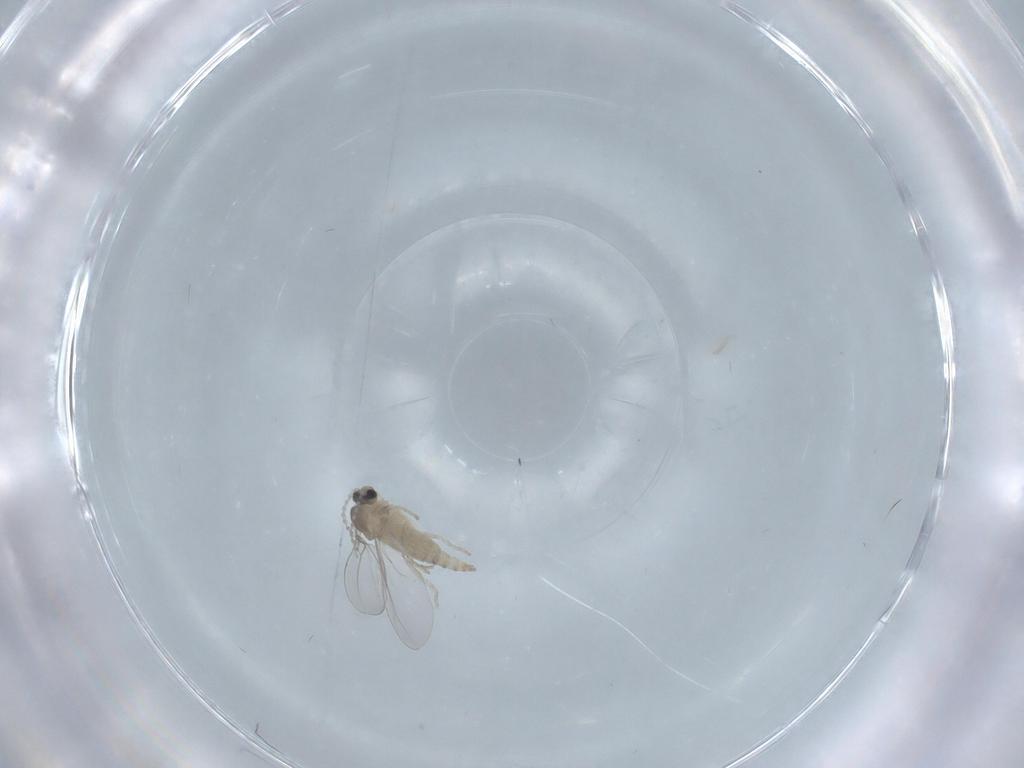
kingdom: Animalia
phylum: Arthropoda
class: Insecta
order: Diptera
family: Cecidomyiidae
